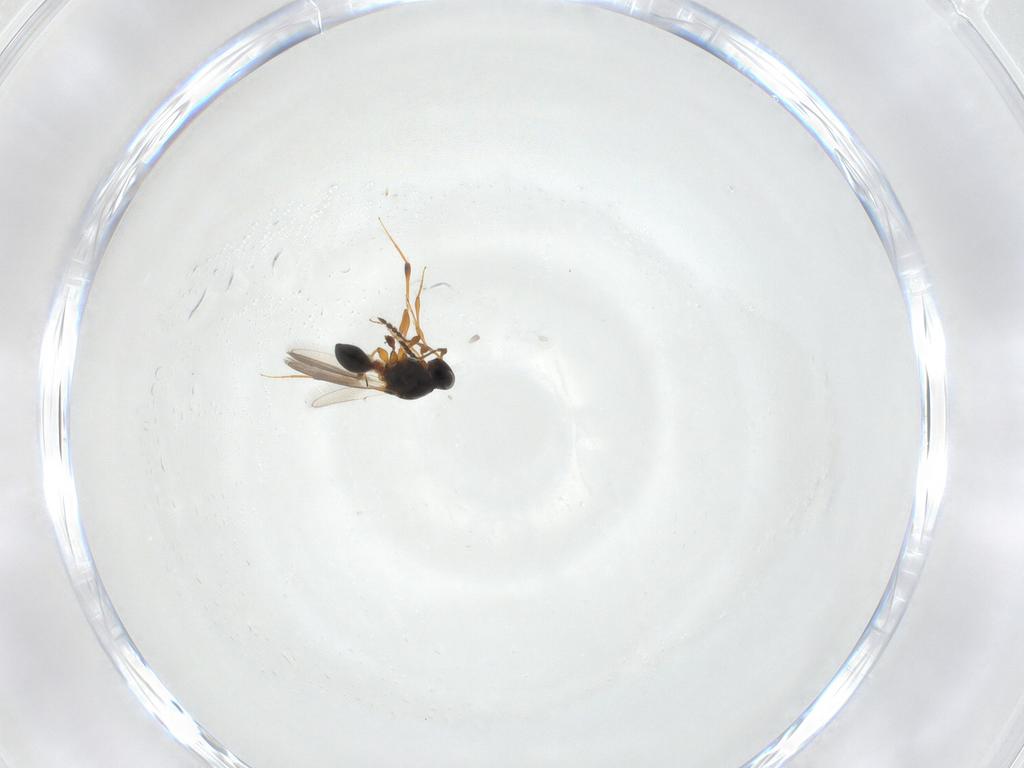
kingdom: Animalia
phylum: Arthropoda
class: Insecta
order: Hymenoptera
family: Platygastridae
